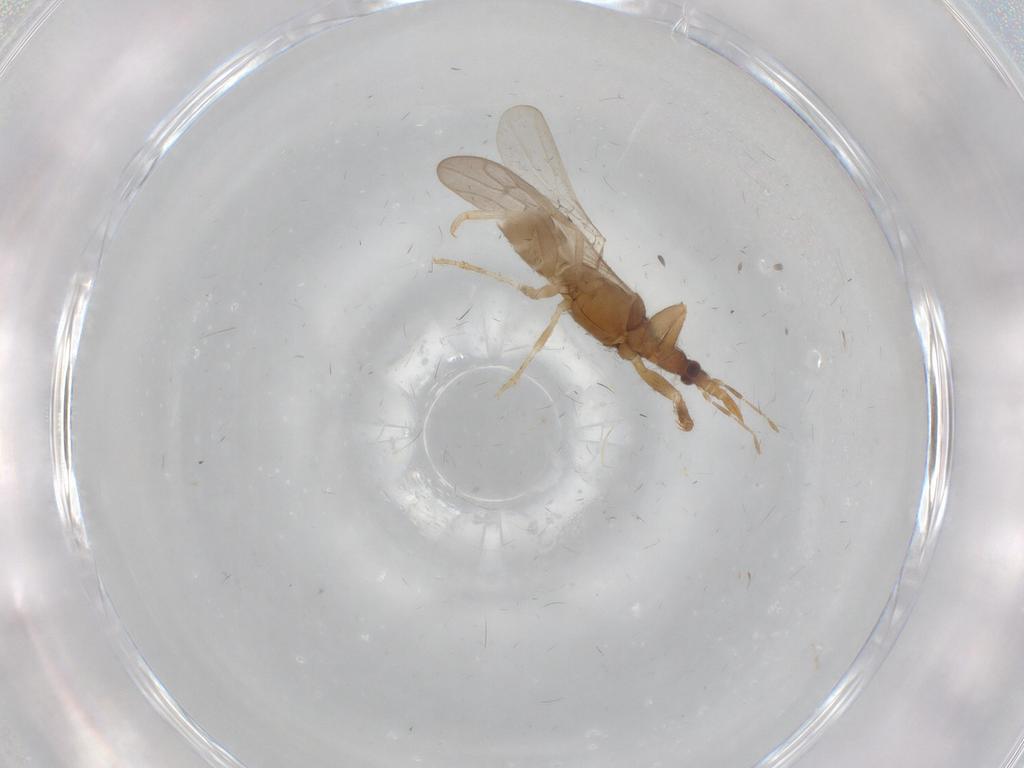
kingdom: Animalia
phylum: Arthropoda
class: Insecta
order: Hemiptera
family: Enicocephalidae
